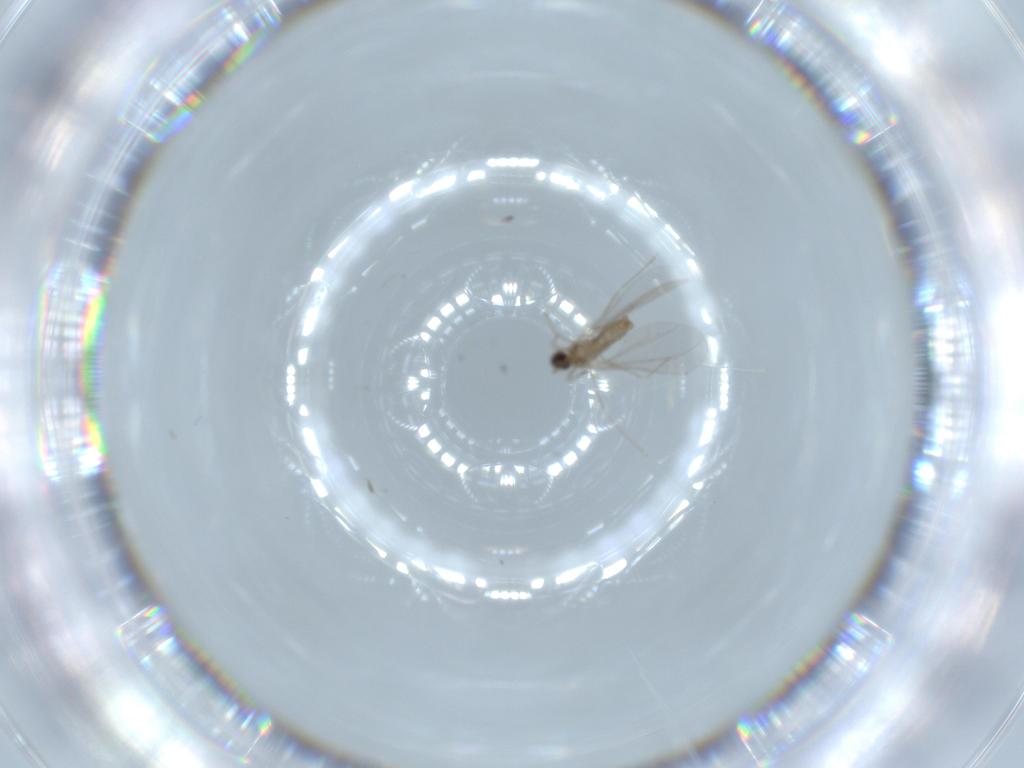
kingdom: Animalia
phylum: Arthropoda
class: Insecta
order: Diptera
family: Cecidomyiidae
